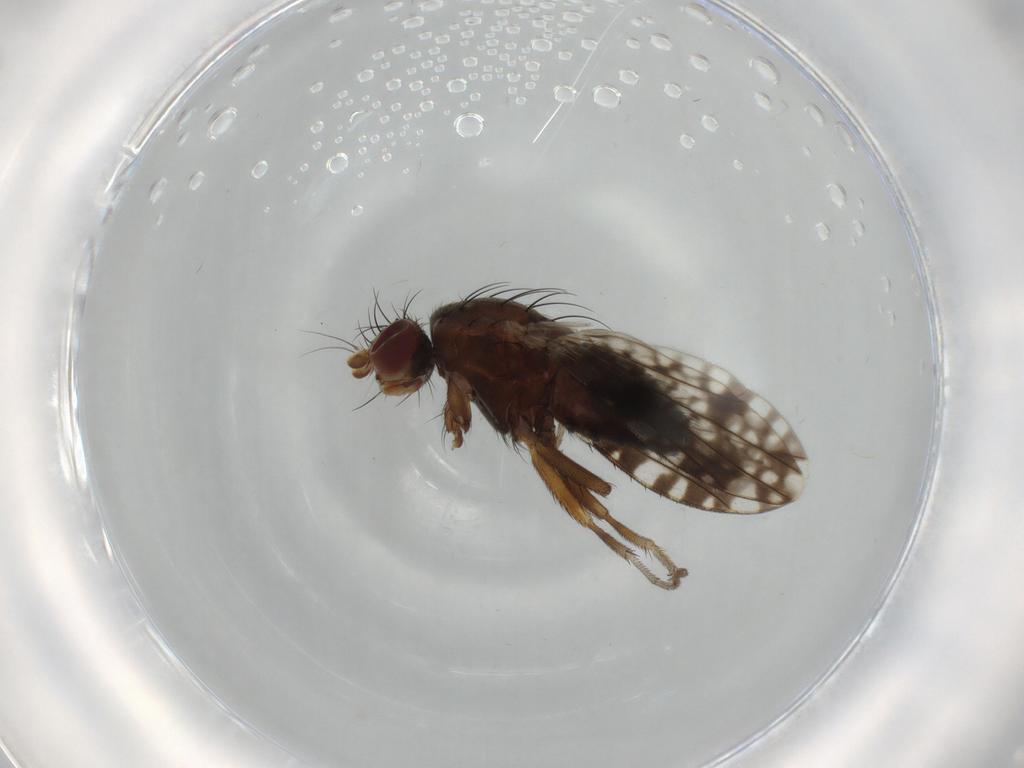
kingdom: Animalia
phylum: Arthropoda
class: Insecta
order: Diptera
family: Tephritidae
